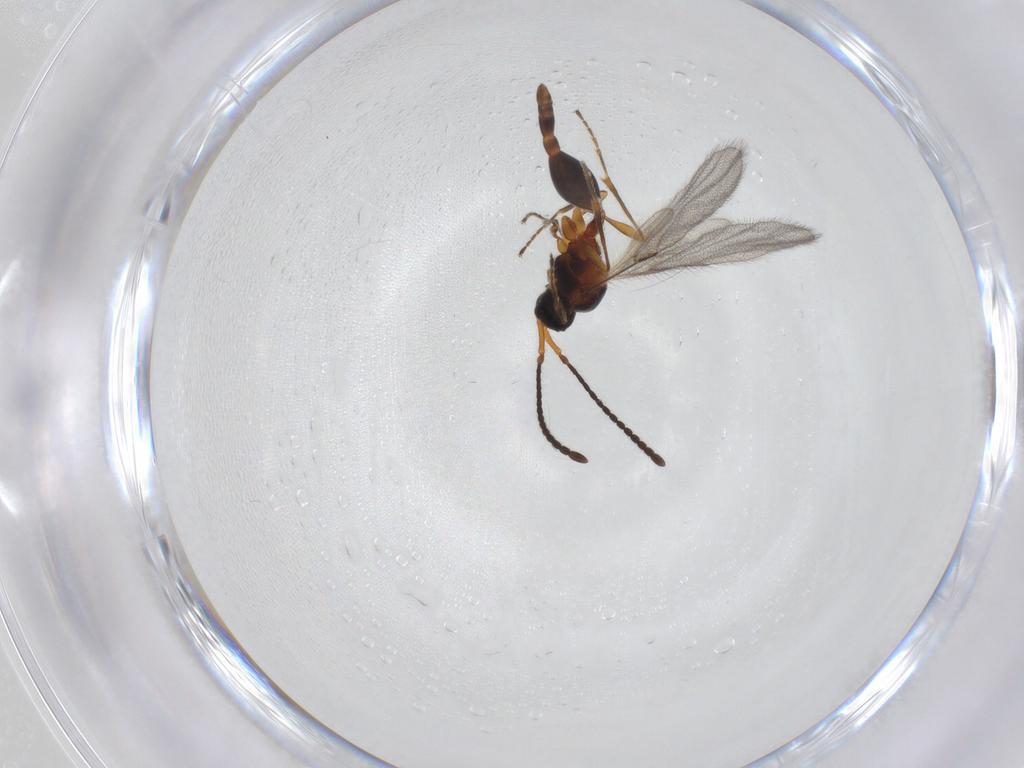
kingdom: Animalia
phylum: Arthropoda
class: Insecta
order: Hymenoptera
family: Diapriidae
